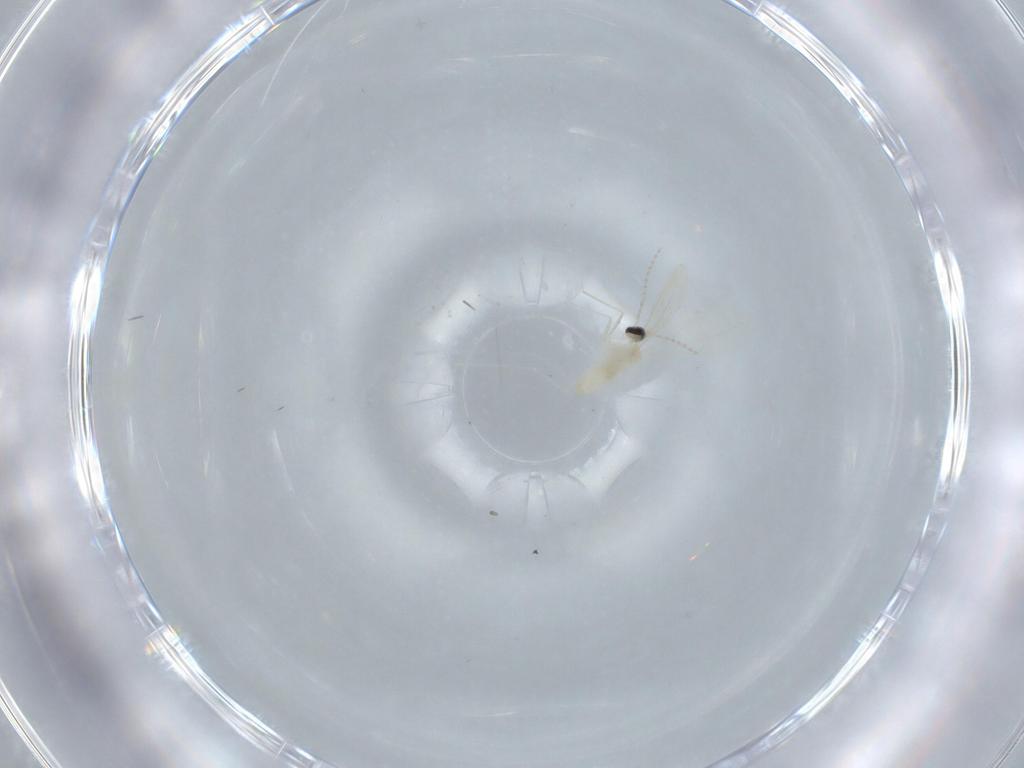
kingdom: Animalia
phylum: Arthropoda
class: Insecta
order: Diptera
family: Cecidomyiidae
